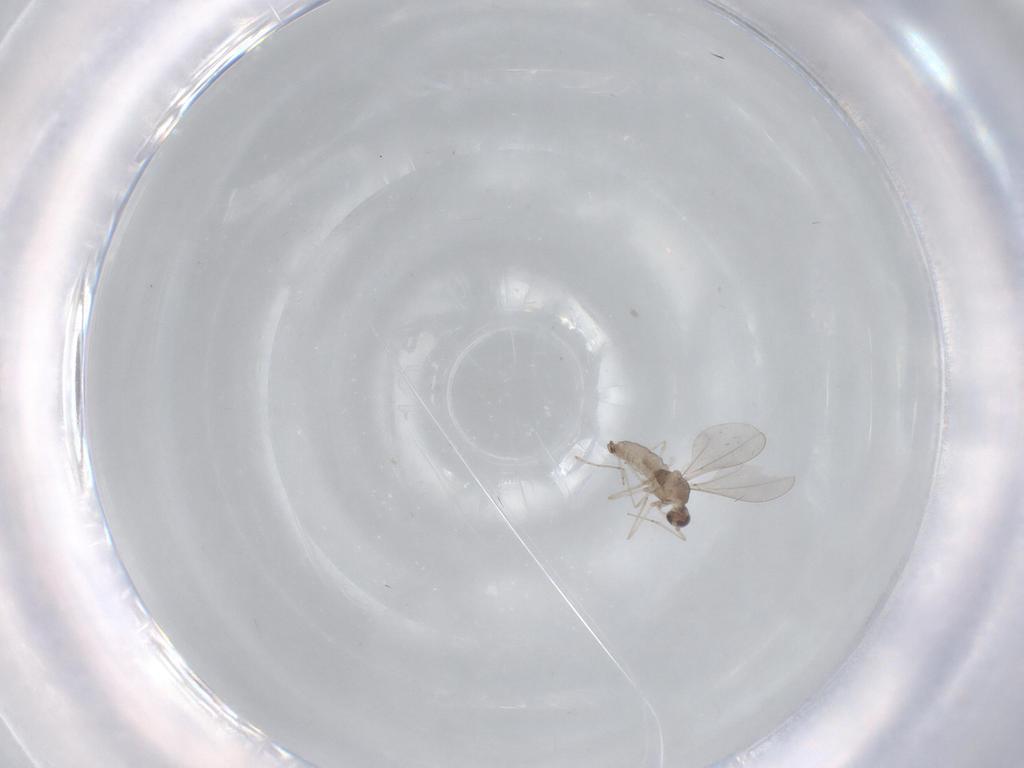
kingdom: Animalia
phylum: Arthropoda
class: Insecta
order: Diptera
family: Cecidomyiidae
